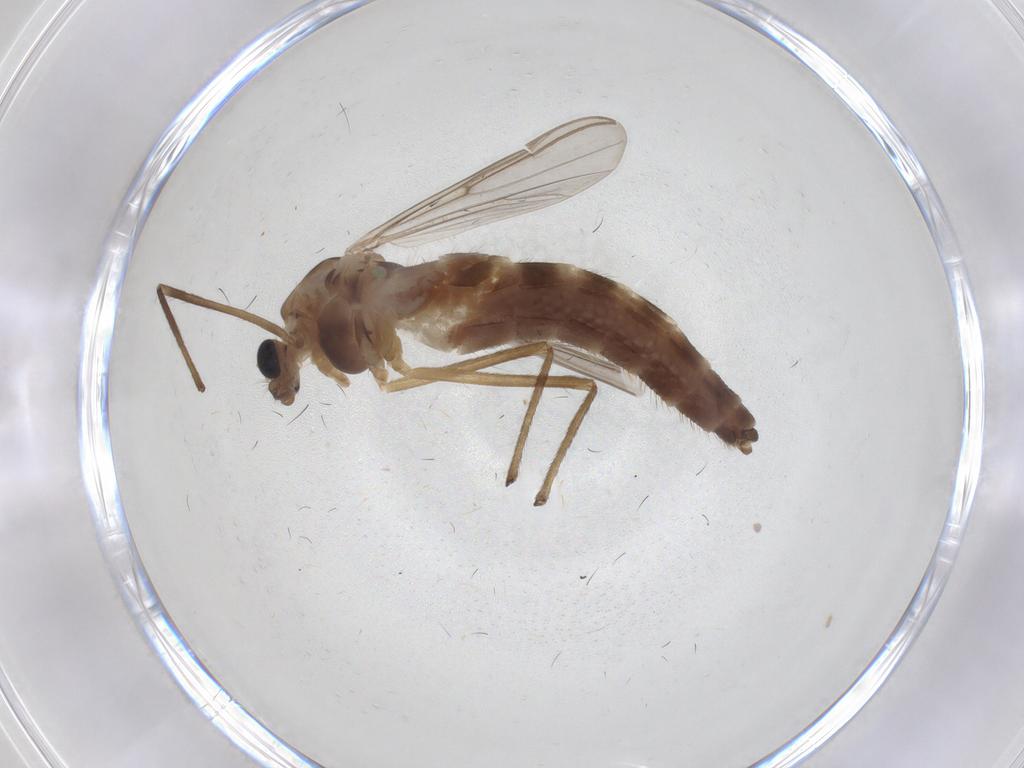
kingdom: Animalia
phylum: Arthropoda
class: Insecta
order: Diptera
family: Chironomidae
